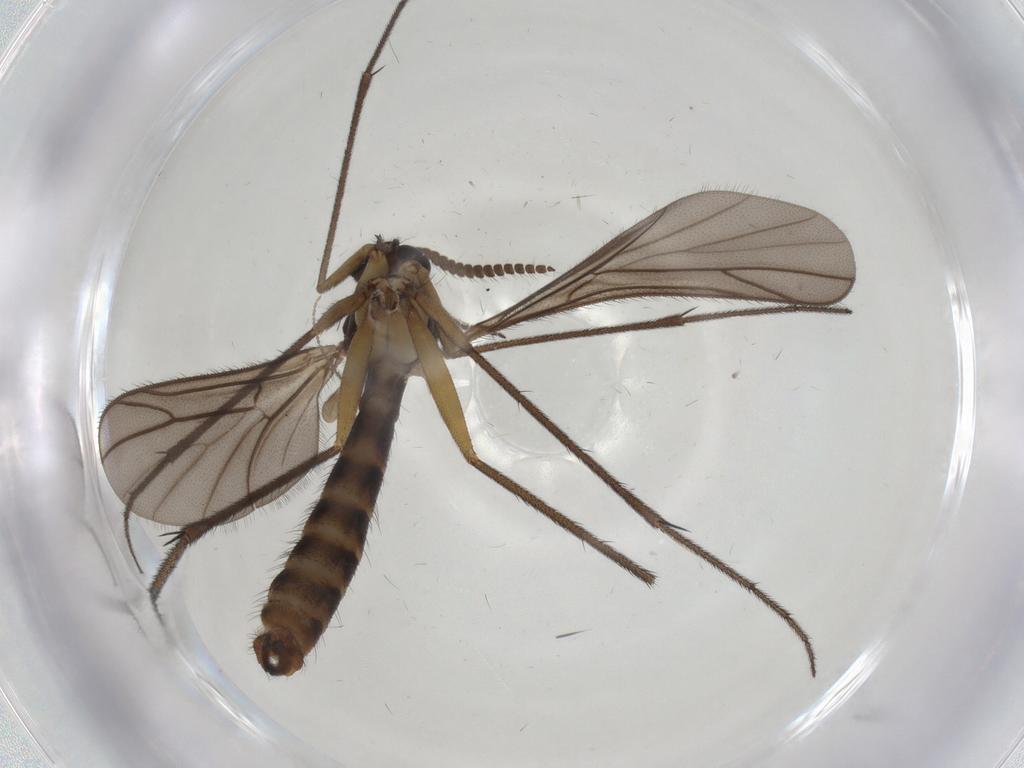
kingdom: Animalia
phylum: Arthropoda
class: Insecta
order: Diptera
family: Ditomyiidae
